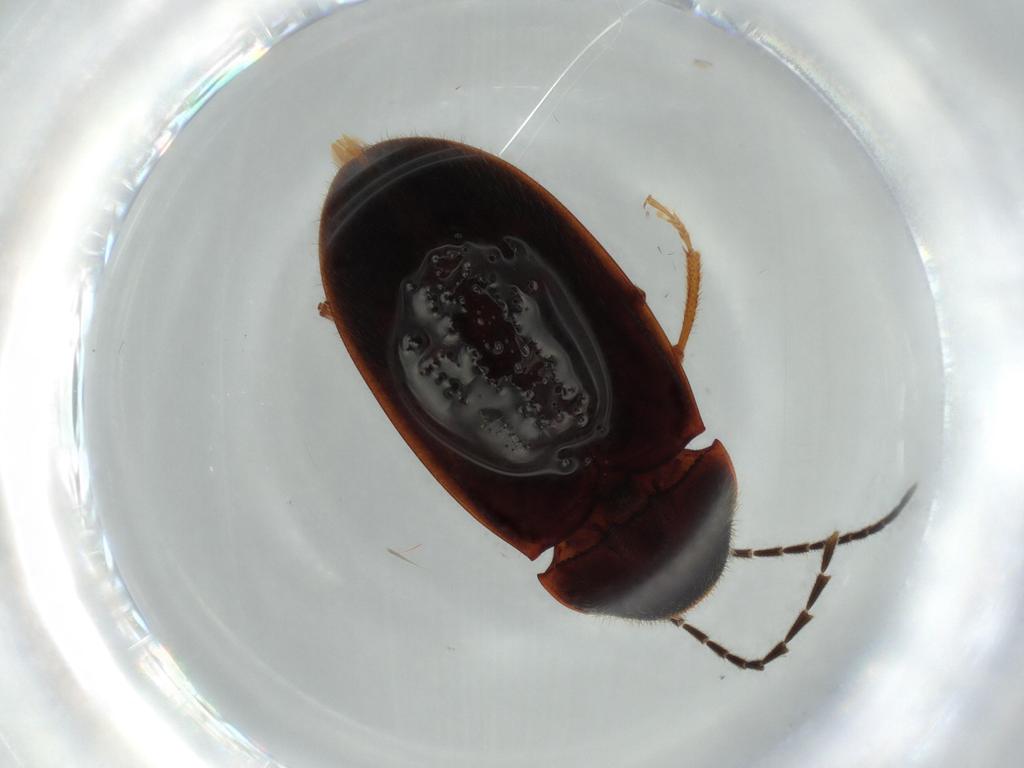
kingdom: Animalia
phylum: Arthropoda
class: Insecta
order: Coleoptera
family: Ptilodactylidae
